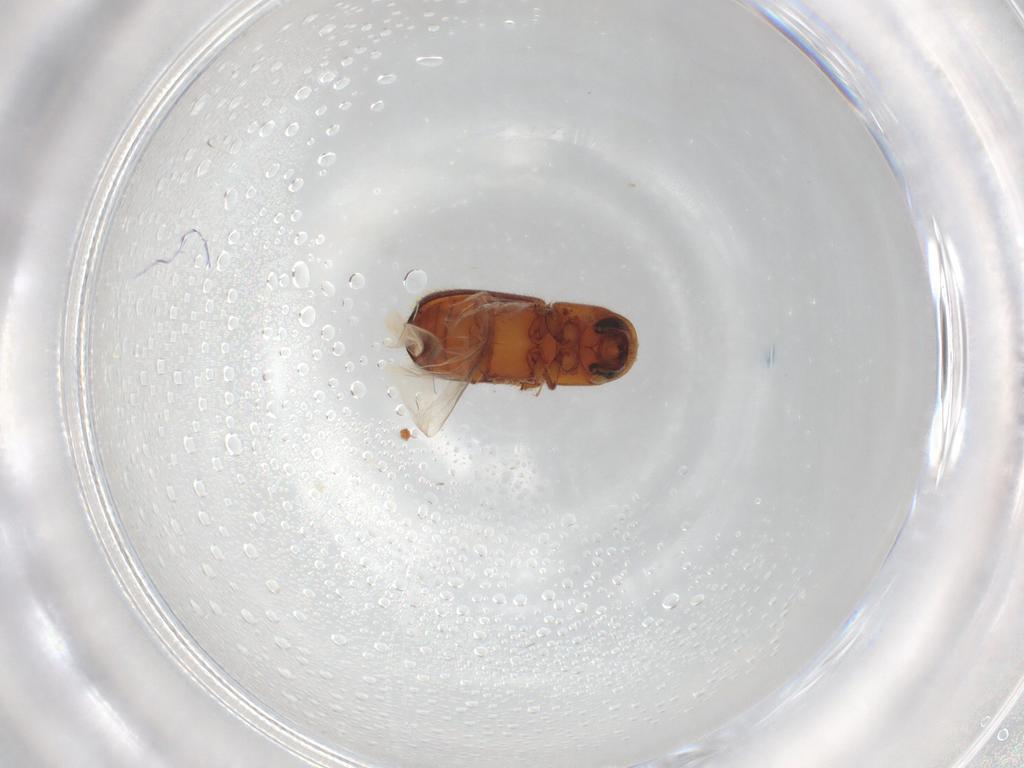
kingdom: Animalia
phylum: Arthropoda
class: Insecta
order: Coleoptera
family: Curculionidae
